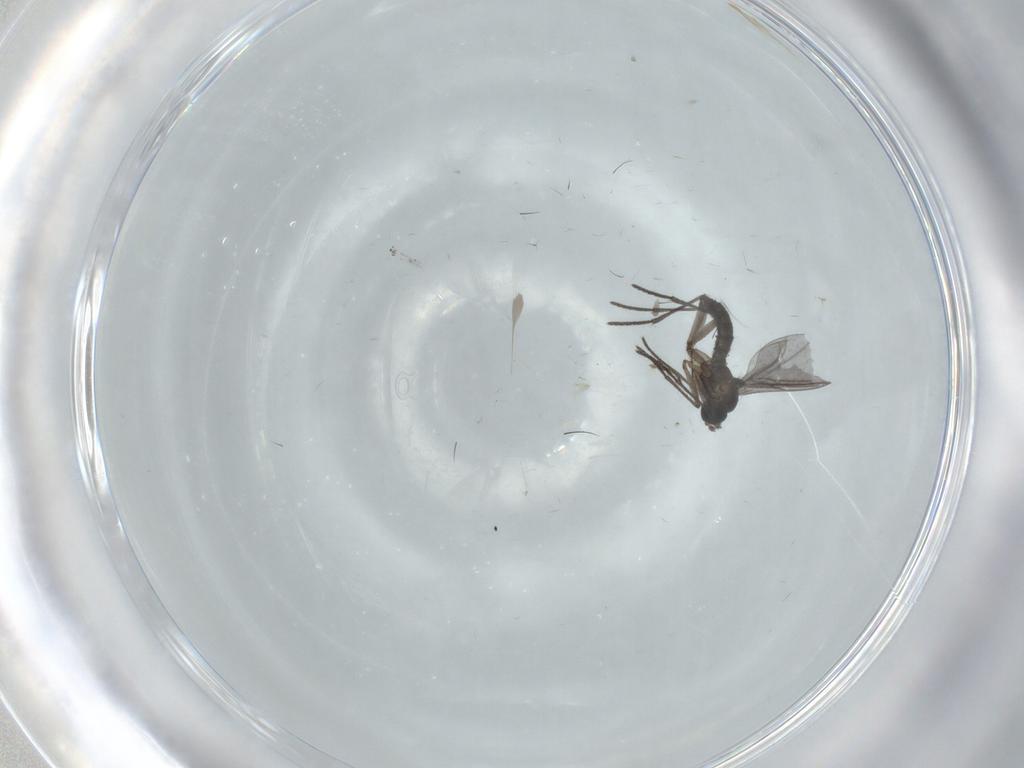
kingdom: Animalia
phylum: Arthropoda
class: Insecta
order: Diptera
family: Cecidomyiidae
